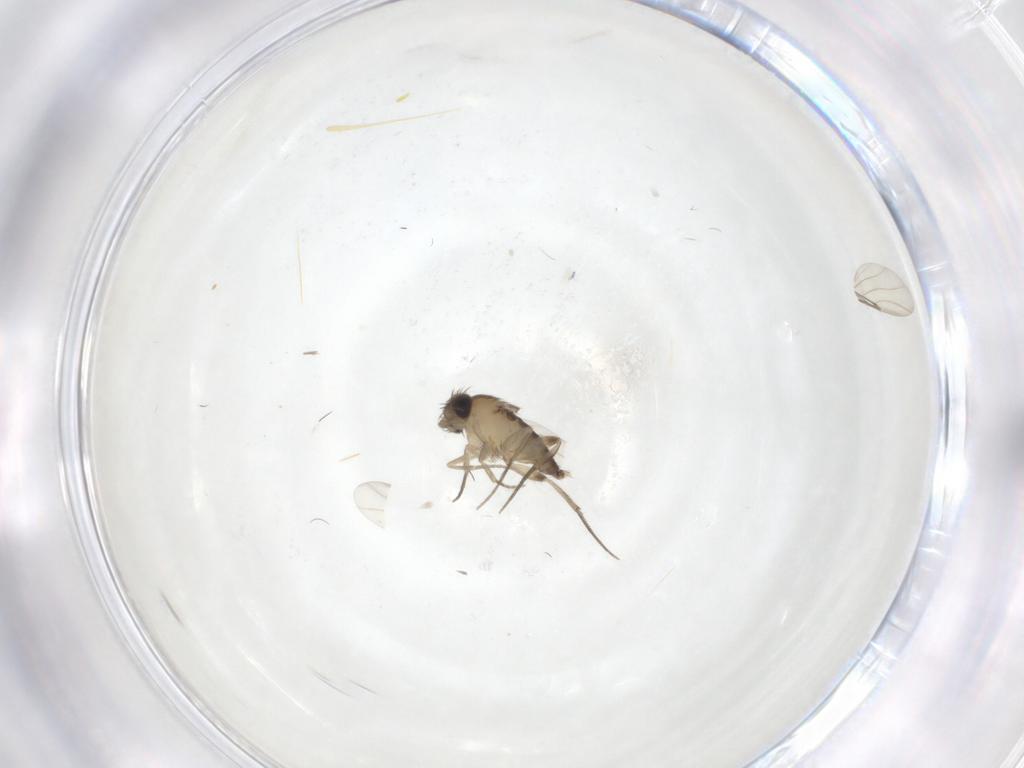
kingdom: Animalia
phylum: Arthropoda
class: Insecta
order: Diptera
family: Phoridae
